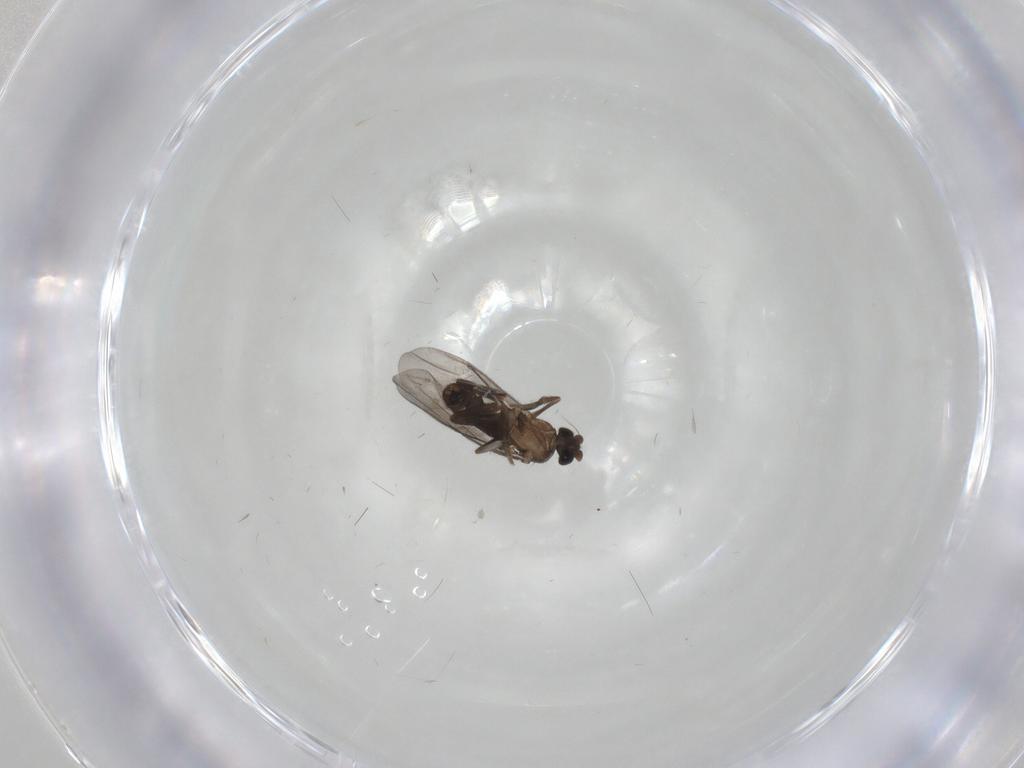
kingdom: Animalia
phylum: Arthropoda
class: Insecta
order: Diptera
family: Phoridae
